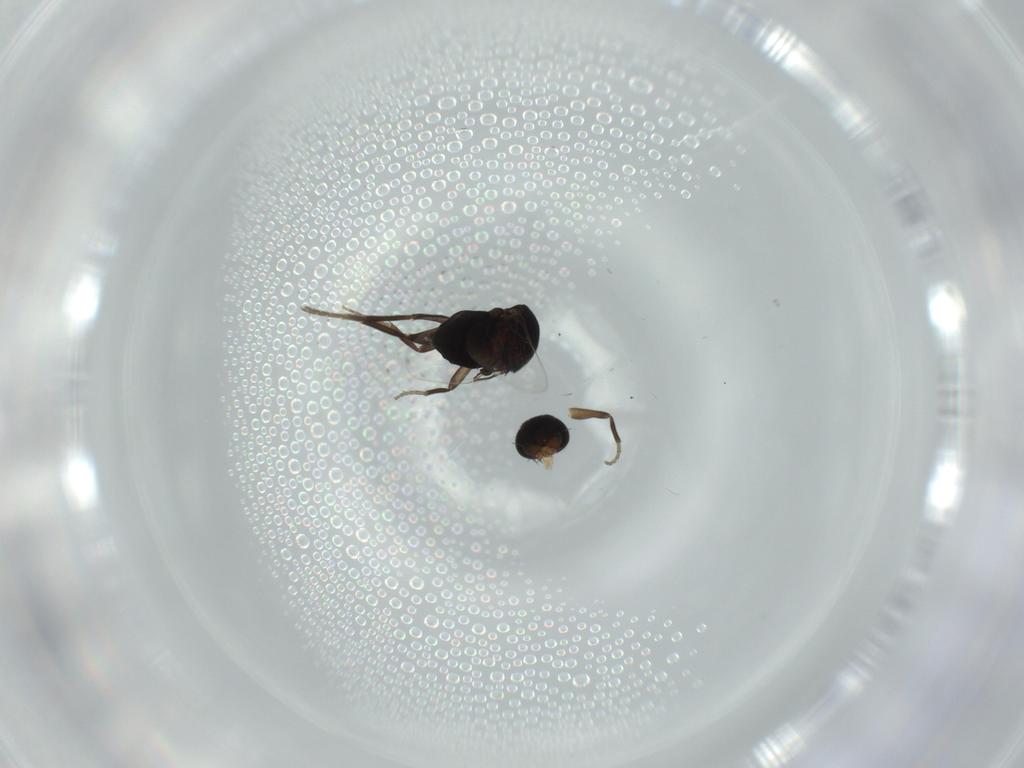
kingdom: Animalia
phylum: Arthropoda
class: Insecta
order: Diptera
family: Phoridae
